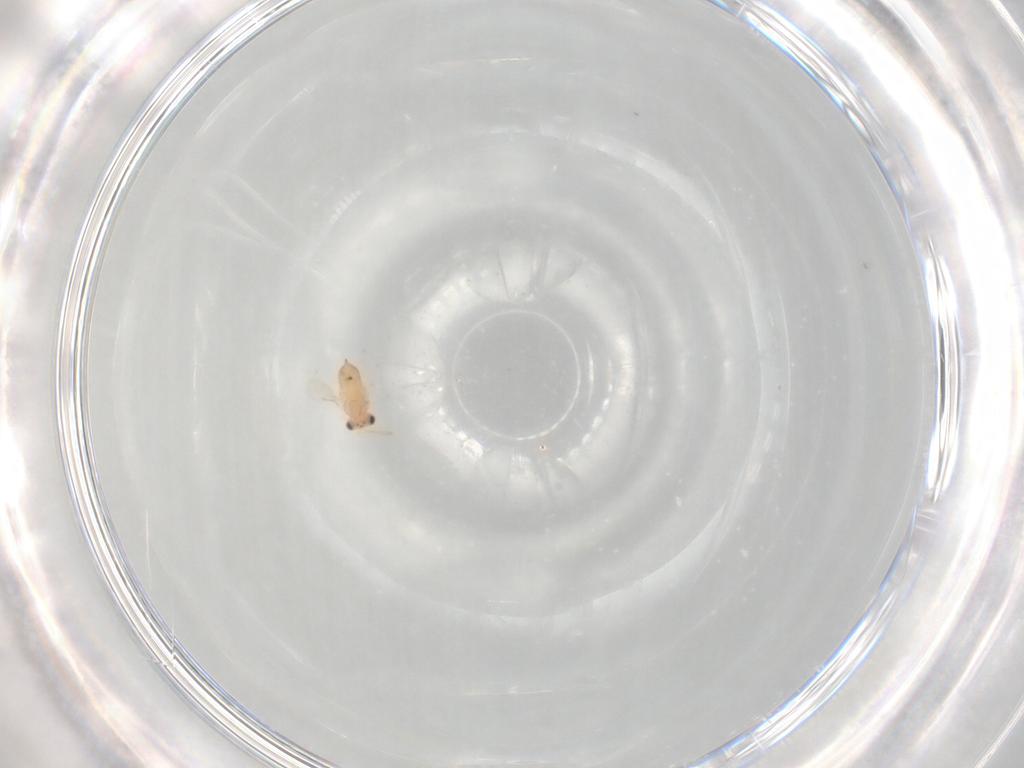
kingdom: Animalia
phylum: Arthropoda
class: Insecta
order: Hymenoptera
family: Aphelinidae
